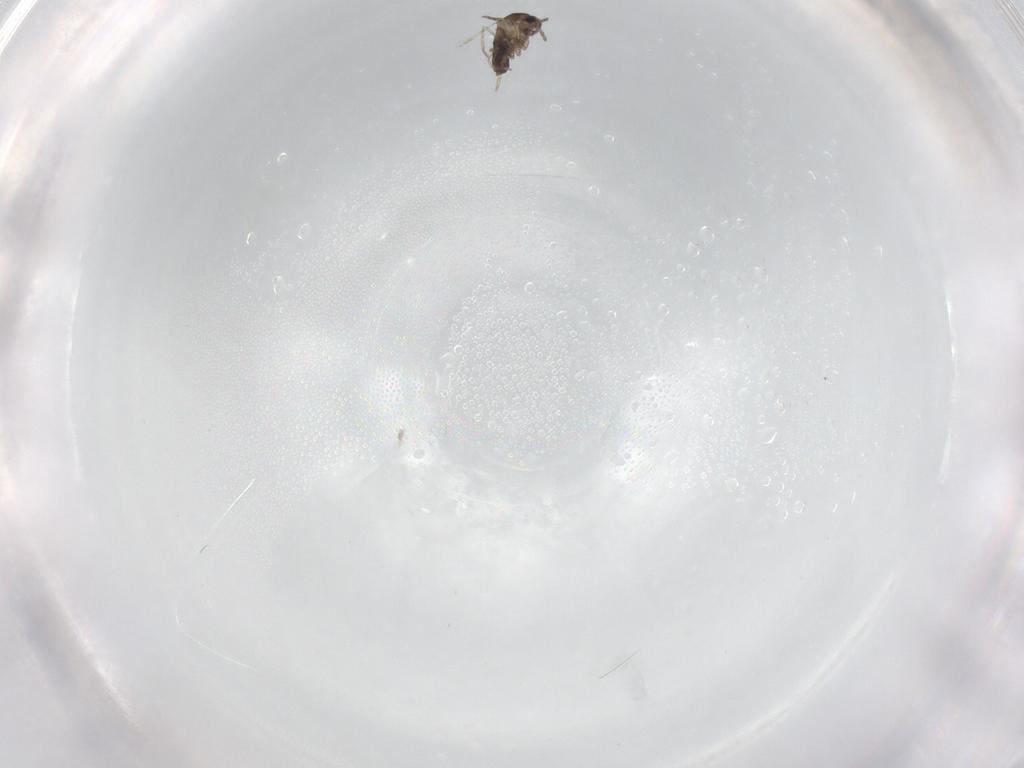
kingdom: Animalia
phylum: Arthropoda
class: Insecta
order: Diptera
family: Cecidomyiidae
